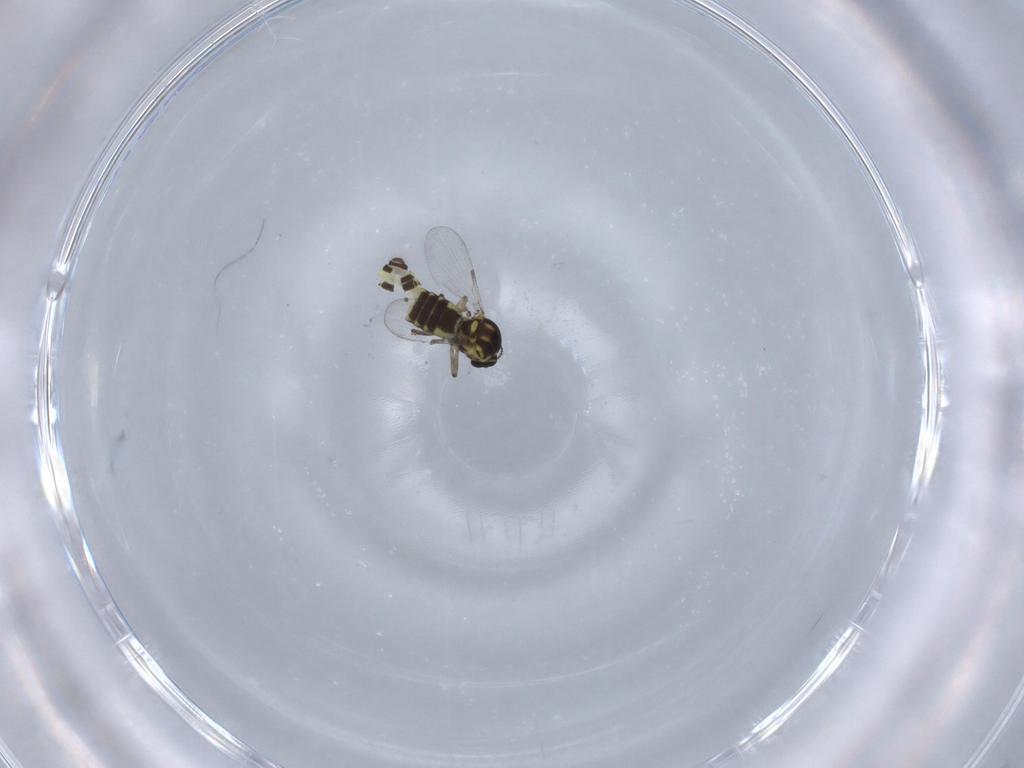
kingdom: Animalia
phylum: Arthropoda
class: Insecta
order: Diptera
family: Ceratopogonidae
